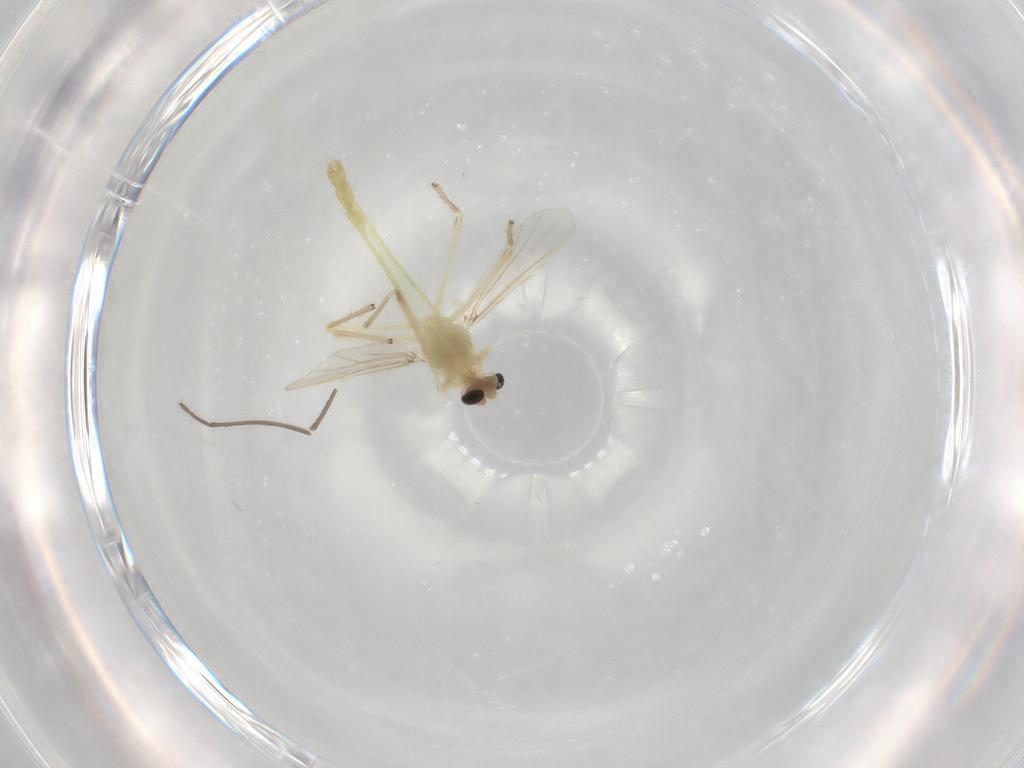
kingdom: Animalia
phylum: Arthropoda
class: Insecta
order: Diptera
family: Chironomidae
